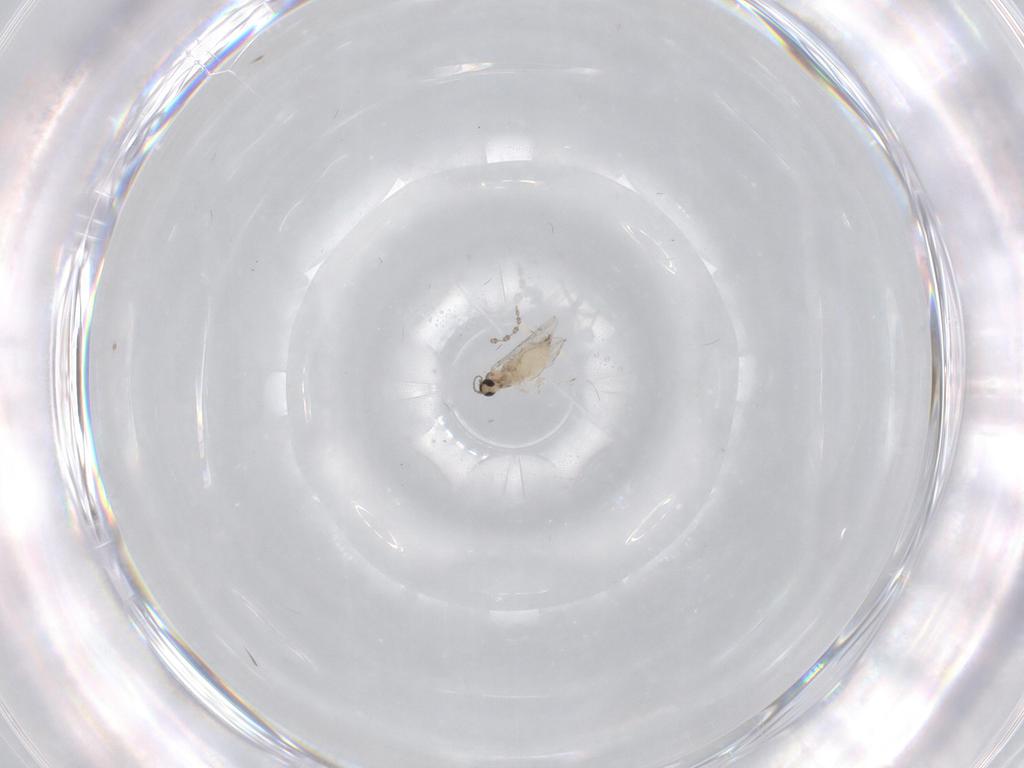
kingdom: Animalia
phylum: Arthropoda
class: Insecta
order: Diptera
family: Cecidomyiidae
